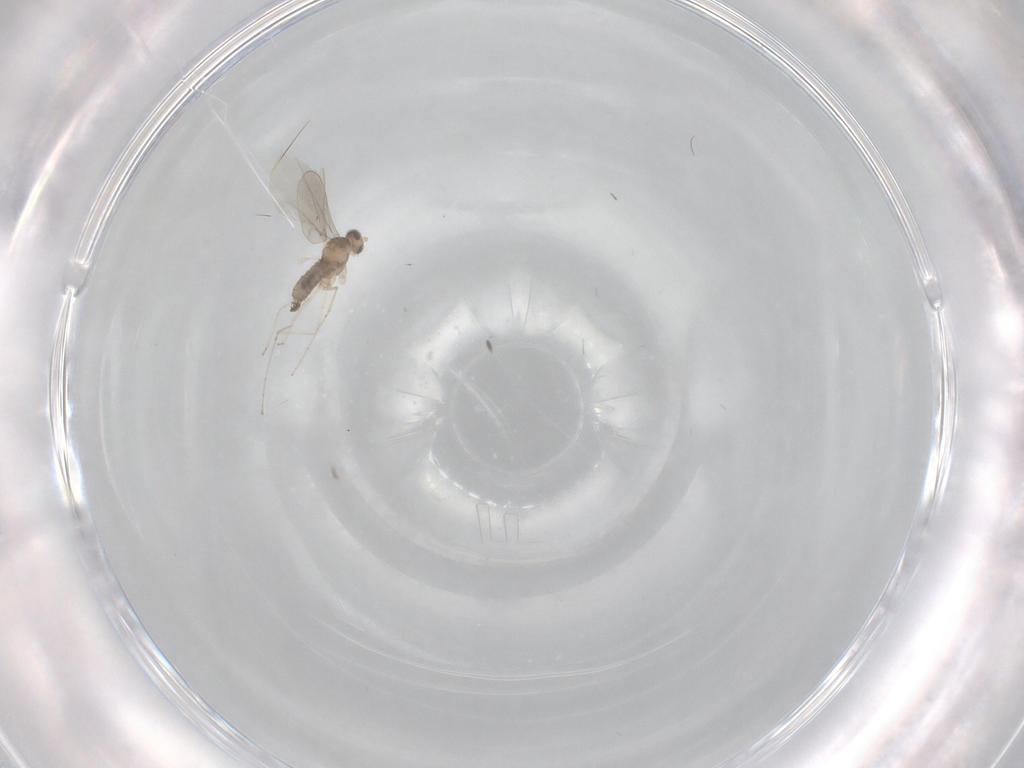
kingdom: Animalia
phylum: Arthropoda
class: Insecta
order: Diptera
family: Cecidomyiidae
